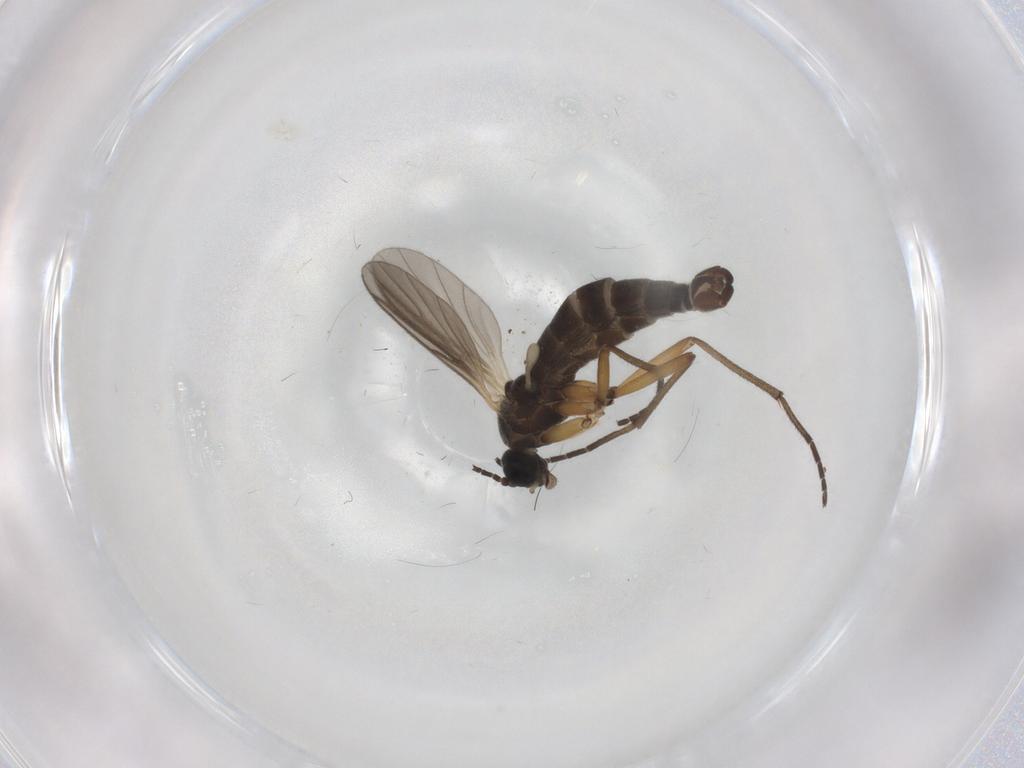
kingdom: Animalia
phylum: Arthropoda
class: Insecta
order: Diptera
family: Sciaridae
